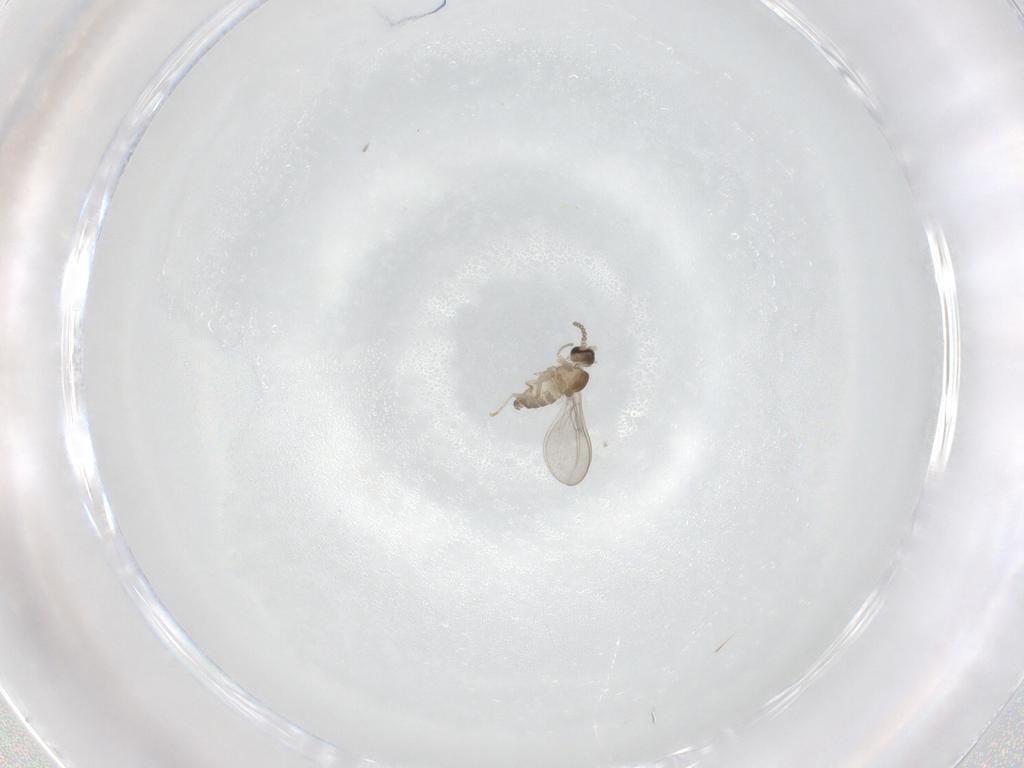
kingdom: Animalia
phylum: Arthropoda
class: Insecta
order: Diptera
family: Cecidomyiidae
